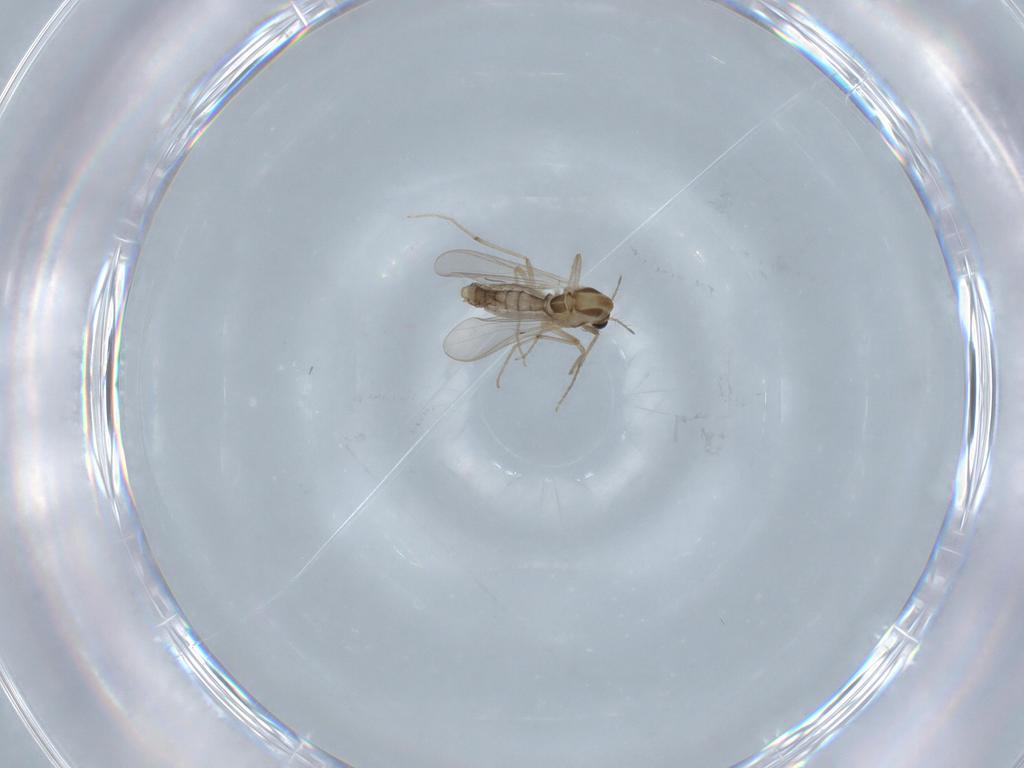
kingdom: Animalia
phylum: Arthropoda
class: Insecta
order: Diptera
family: Chironomidae
